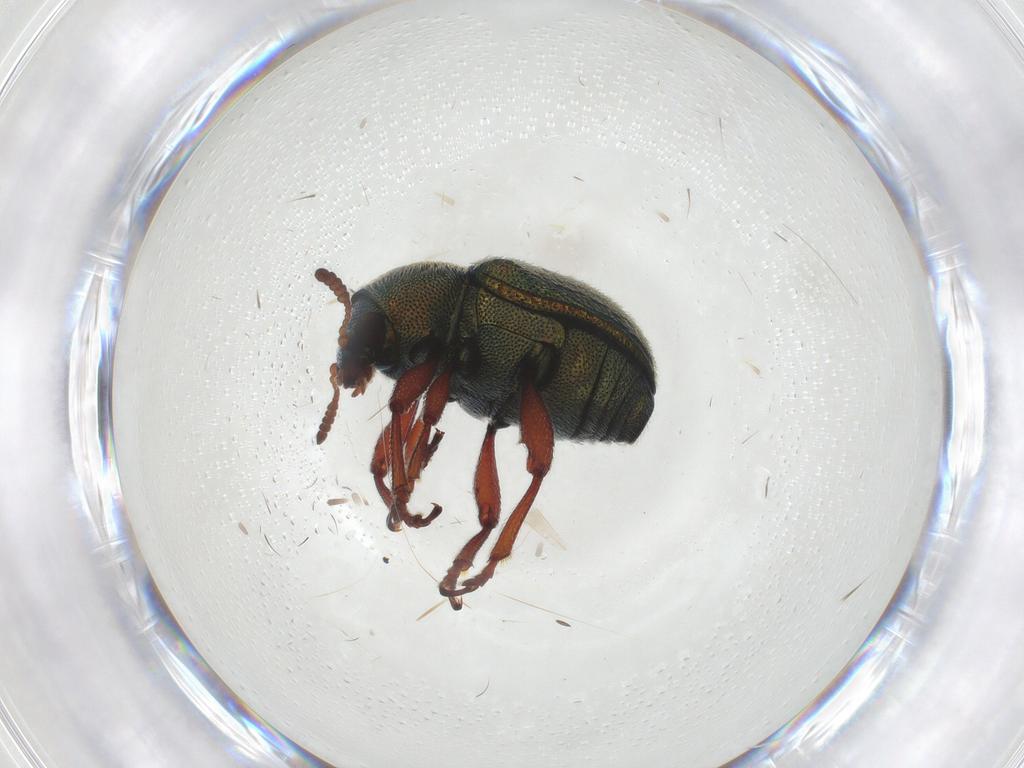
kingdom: Animalia
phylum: Arthropoda
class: Insecta
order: Coleoptera
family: Chrysomelidae
